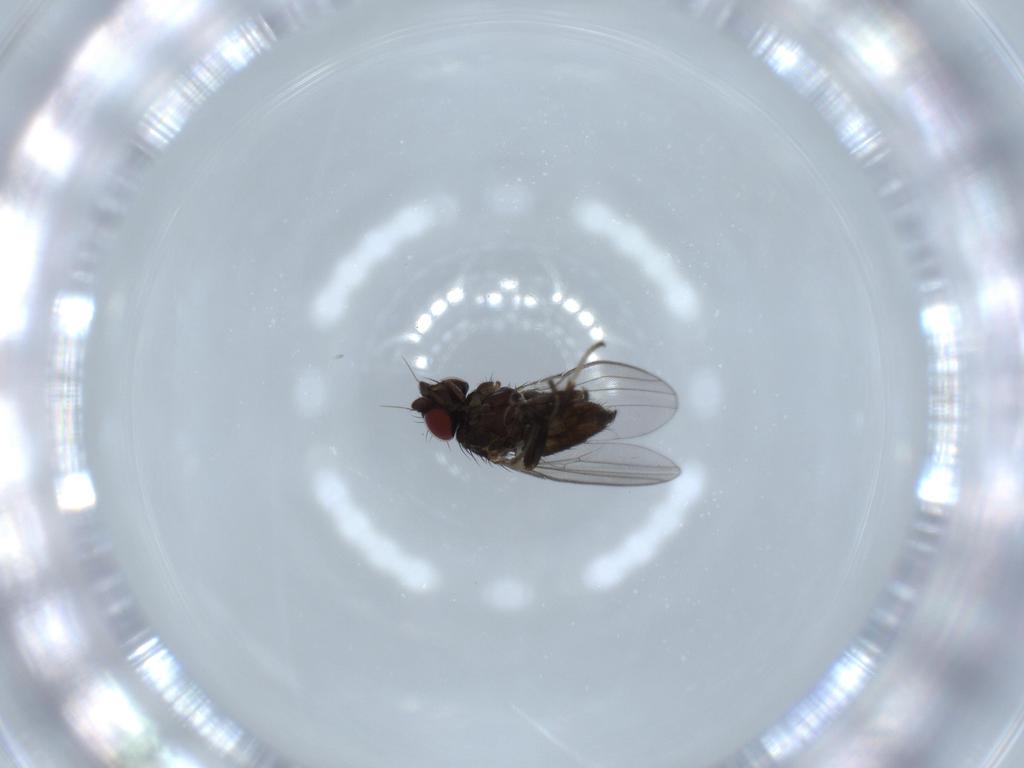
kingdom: Animalia
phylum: Arthropoda
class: Insecta
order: Diptera
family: Milichiidae
